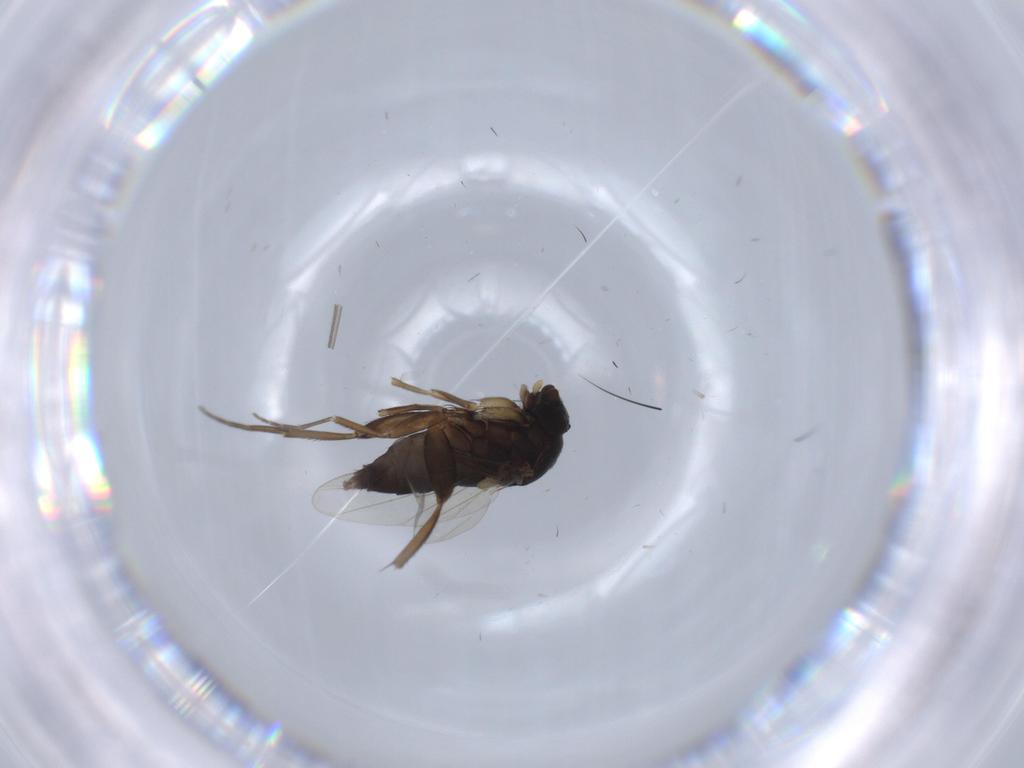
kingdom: Animalia
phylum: Arthropoda
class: Insecta
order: Diptera
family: Phoridae
